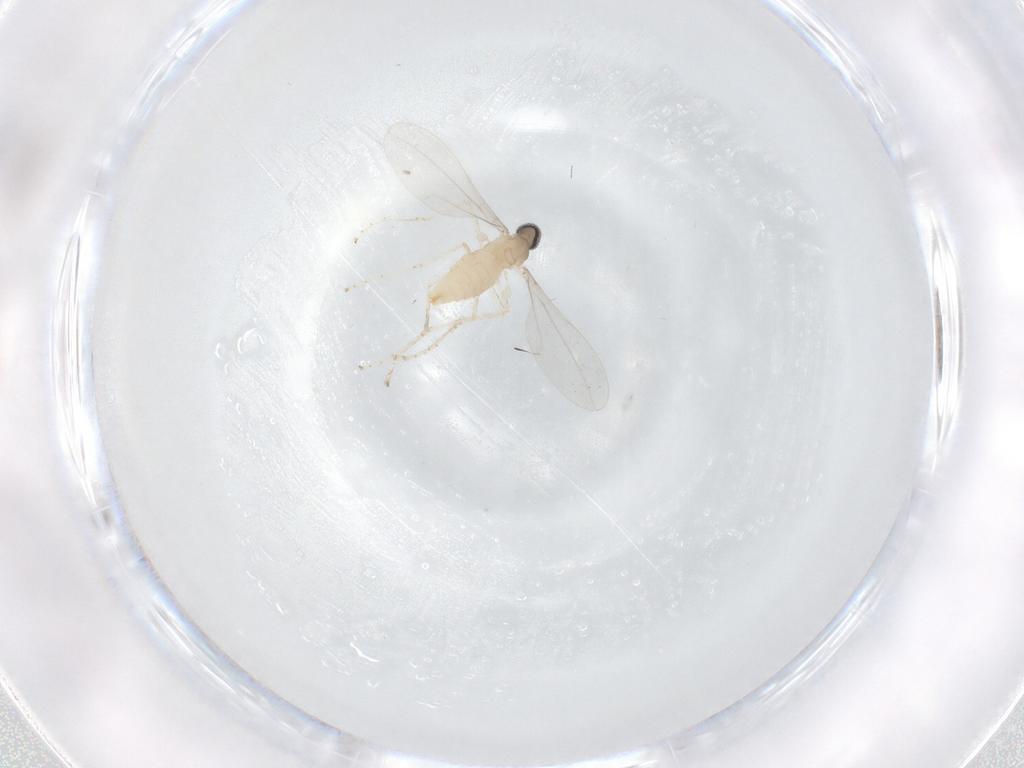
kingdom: Animalia
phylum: Arthropoda
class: Insecta
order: Diptera
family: Cecidomyiidae
